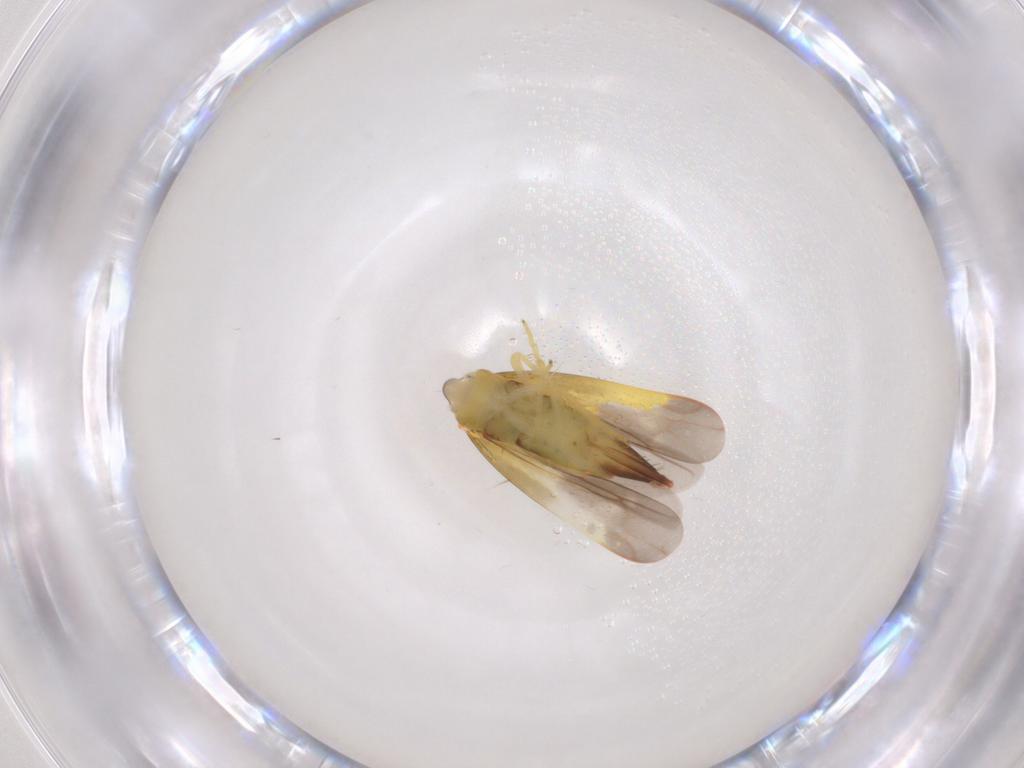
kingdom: Animalia
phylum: Arthropoda
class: Insecta
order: Hemiptera
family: Cicadellidae
